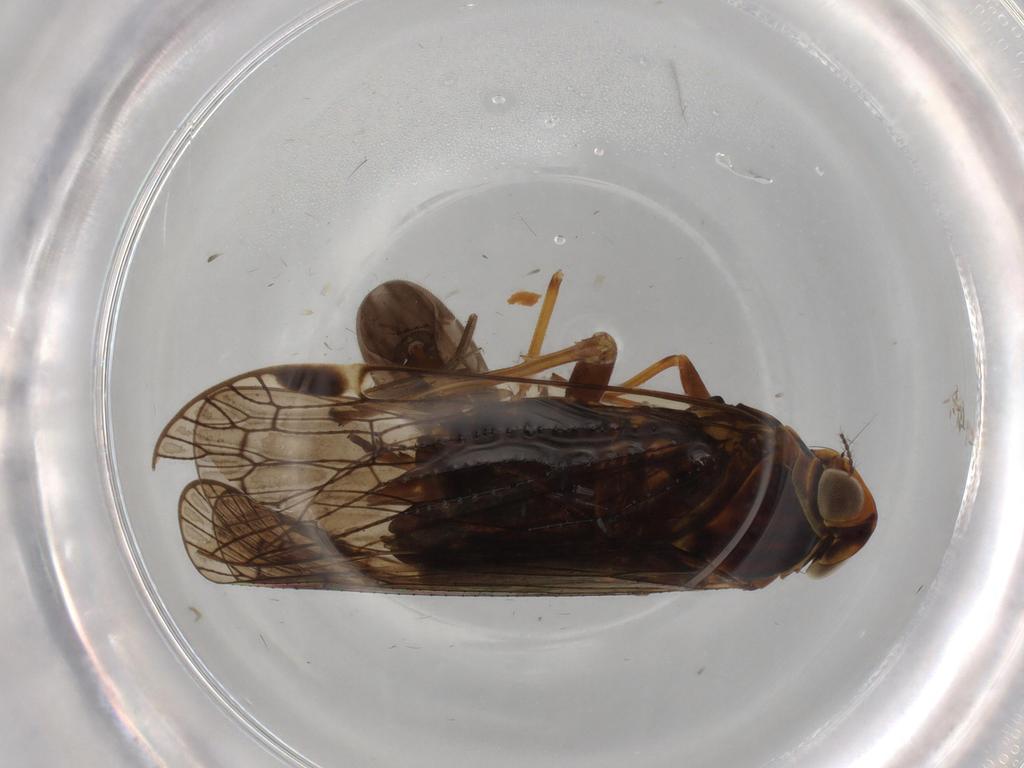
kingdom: Animalia
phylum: Arthropoda
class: Insecta
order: Hemiptera
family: Ceratocombidae
